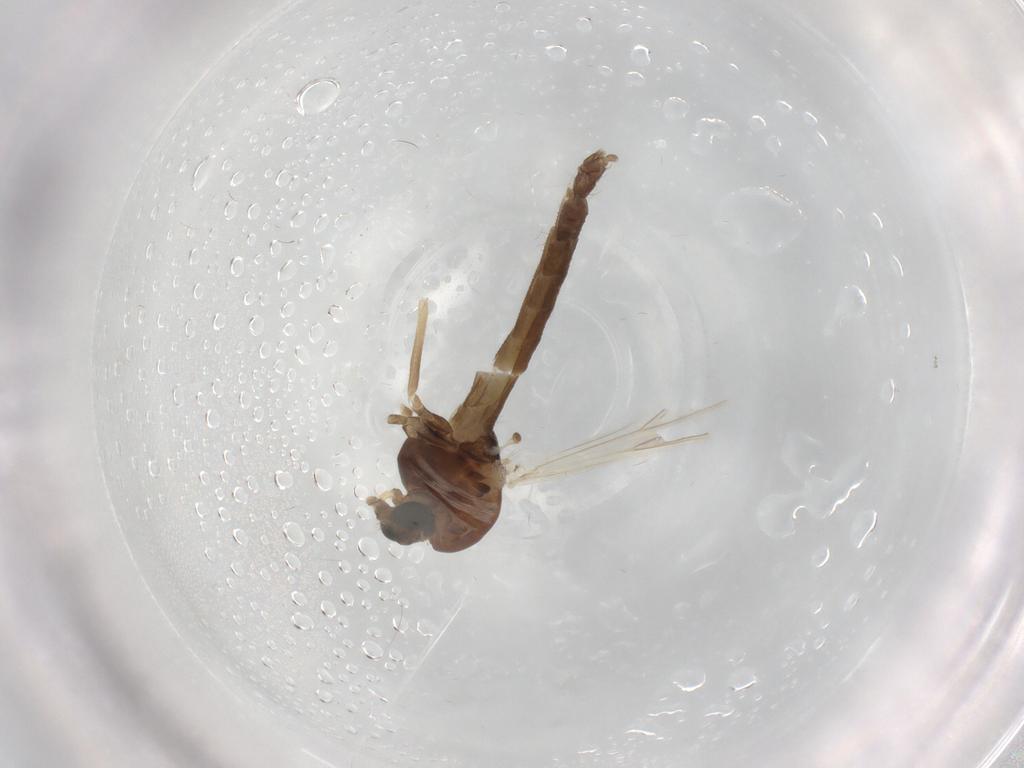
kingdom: Animalia
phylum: Arthropoda
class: Insecta
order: Diptera
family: Chironomidae
